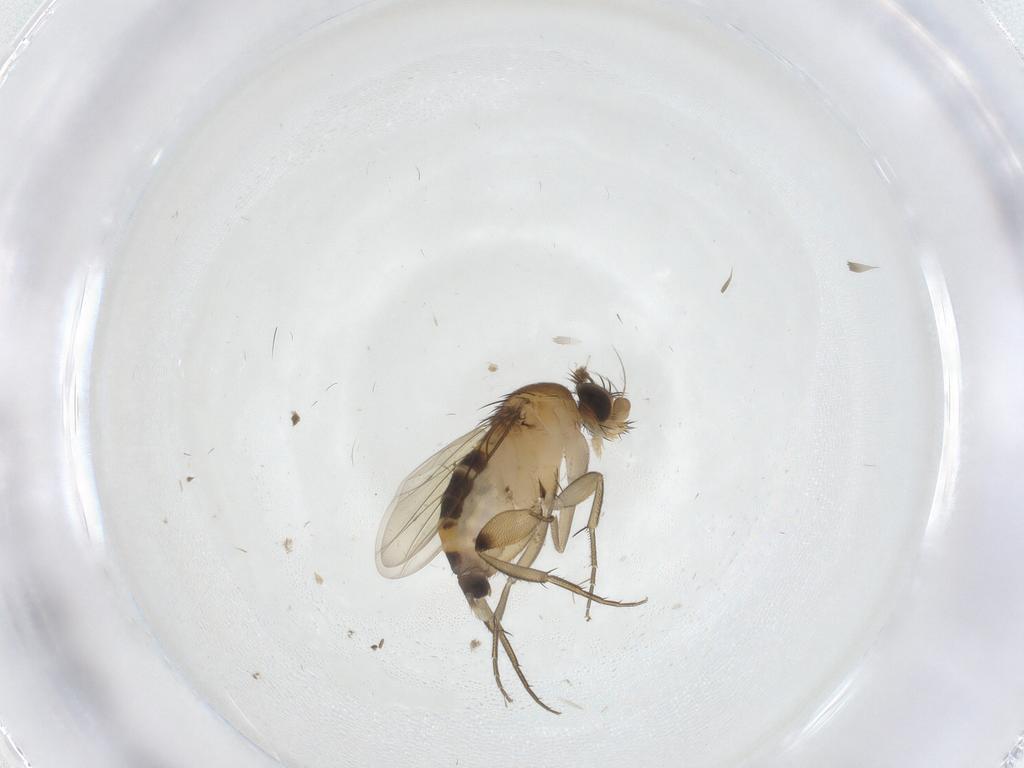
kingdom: Animalia
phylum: Arthropoda
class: Insecta
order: Diptera
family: Phoridae
